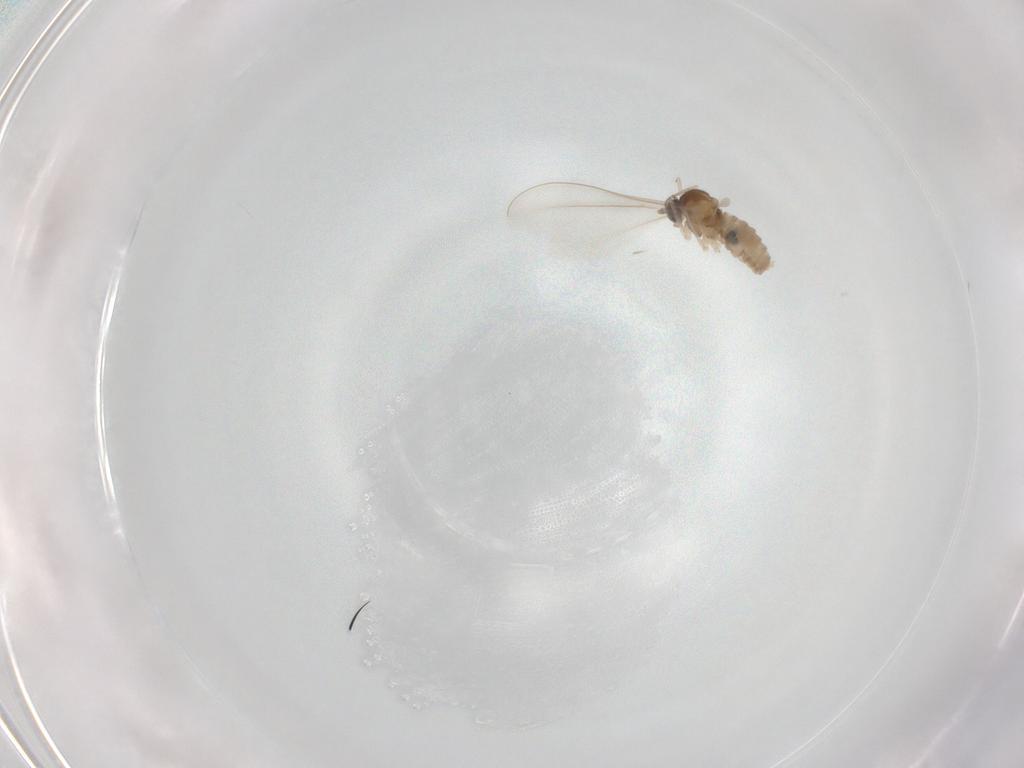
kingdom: Animalia
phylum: Arthropoda
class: Insecta
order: Diptera
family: Cecidomyiidae
